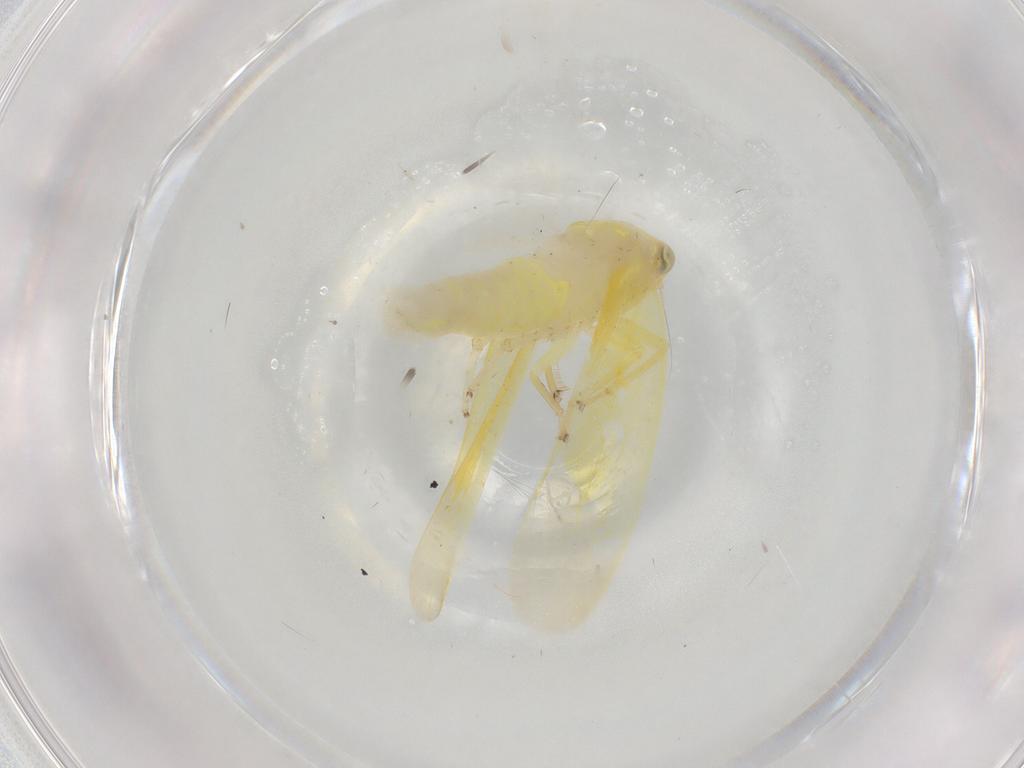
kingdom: Animalia
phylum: Arthropoda
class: Insecta
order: Hemiptera
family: Cicadellidae
